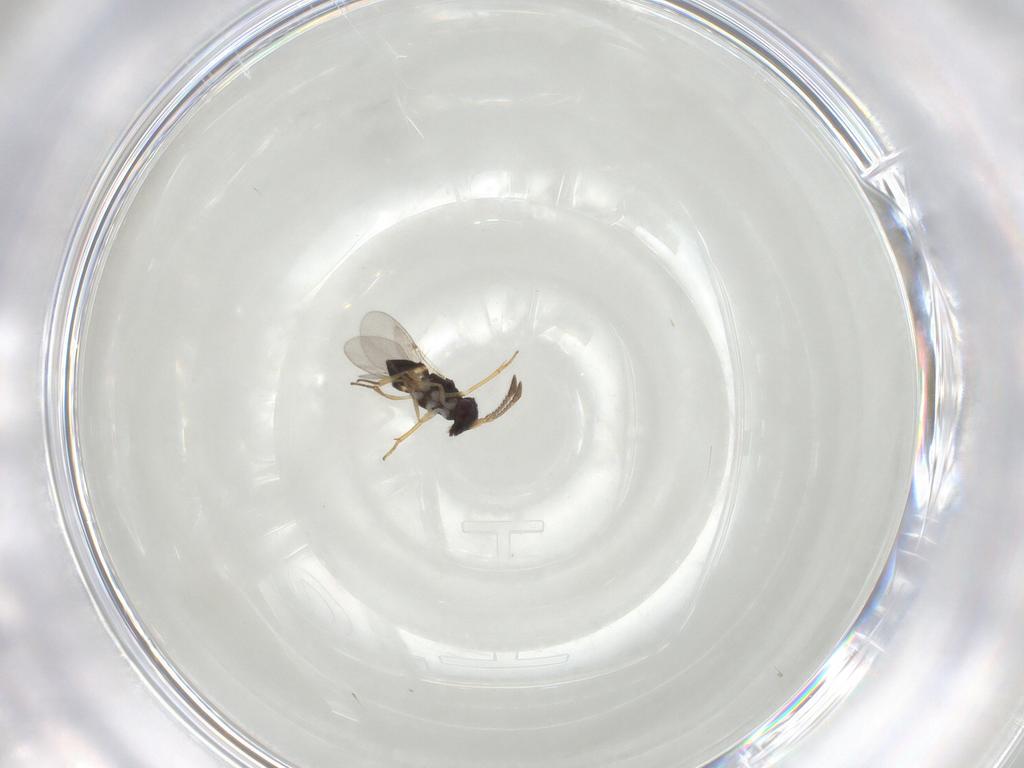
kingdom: Animalia
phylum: Arthropoda
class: Insecta
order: Hymenoptera
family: Encyrtidae
